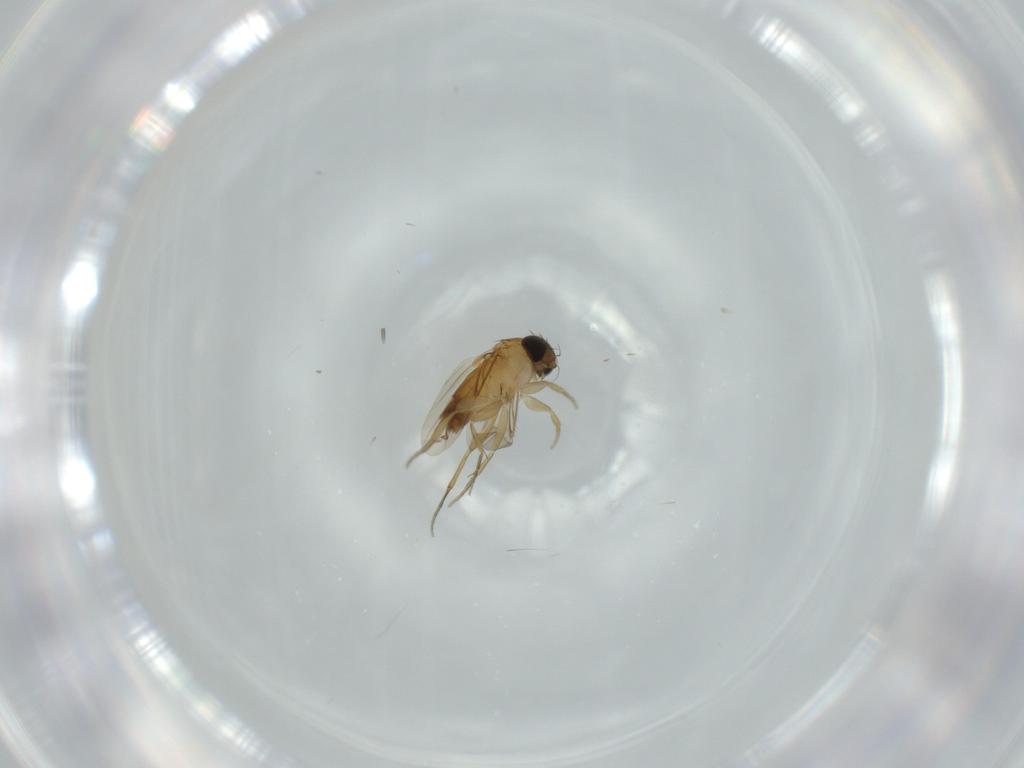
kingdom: Animalia
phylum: Arthropoda
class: Insecta
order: Diptera
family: Phoridae
